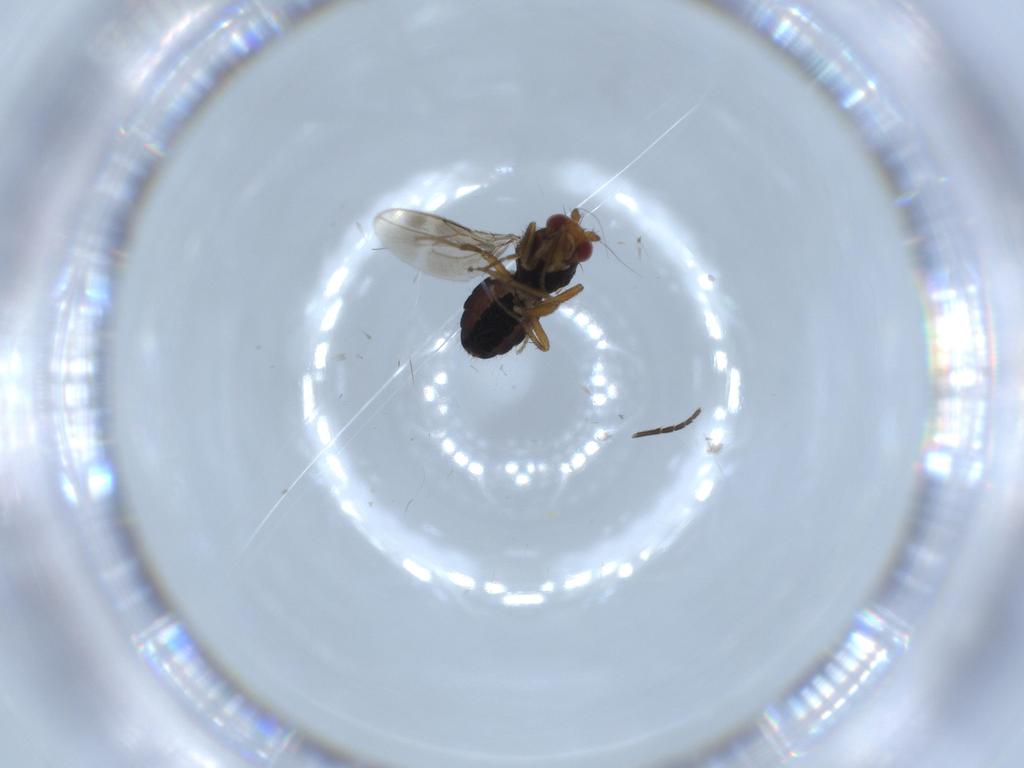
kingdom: Animalia
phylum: Arthropoda
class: Insecta
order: Diptera
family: Sphaeroceridae
